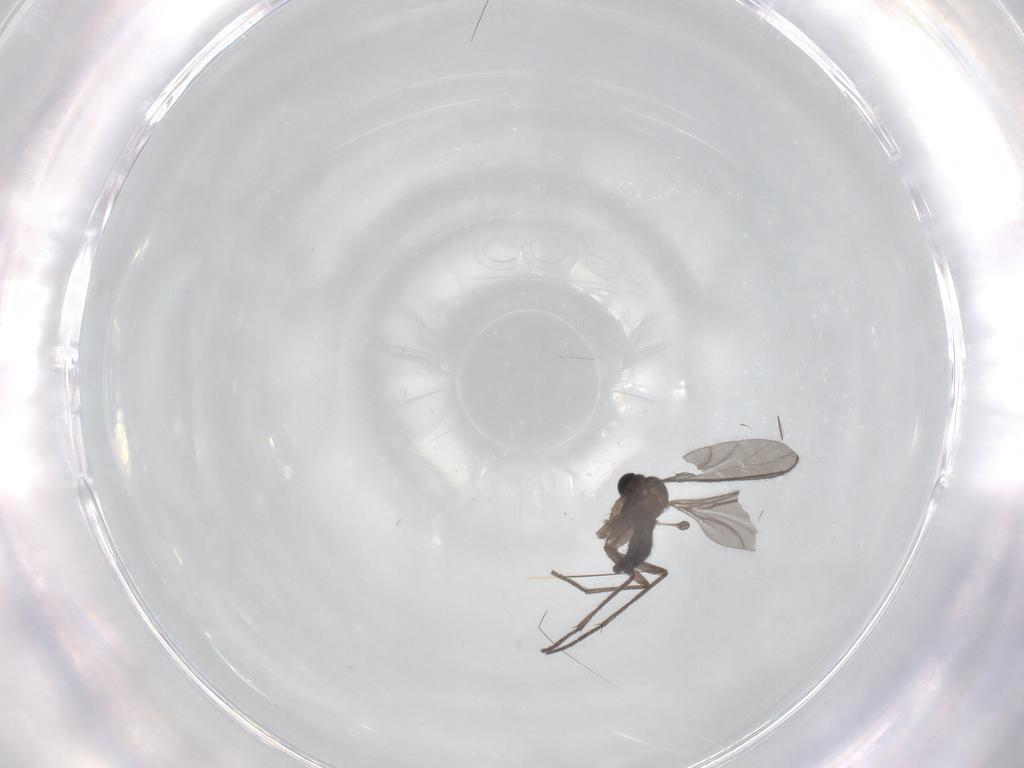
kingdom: Animalia
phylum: Arthropoda
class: Insecta
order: Diptera
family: Sciaridae
